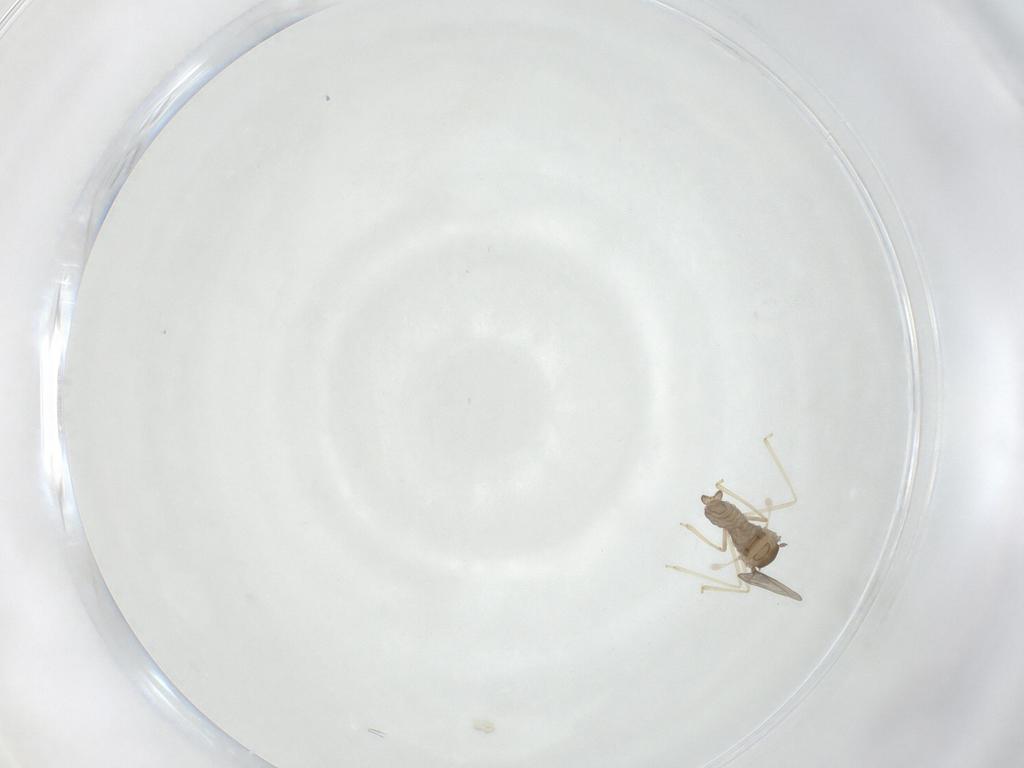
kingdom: Animalia
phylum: Arthropoda
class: Insecta
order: Diptera
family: Chironomidae
